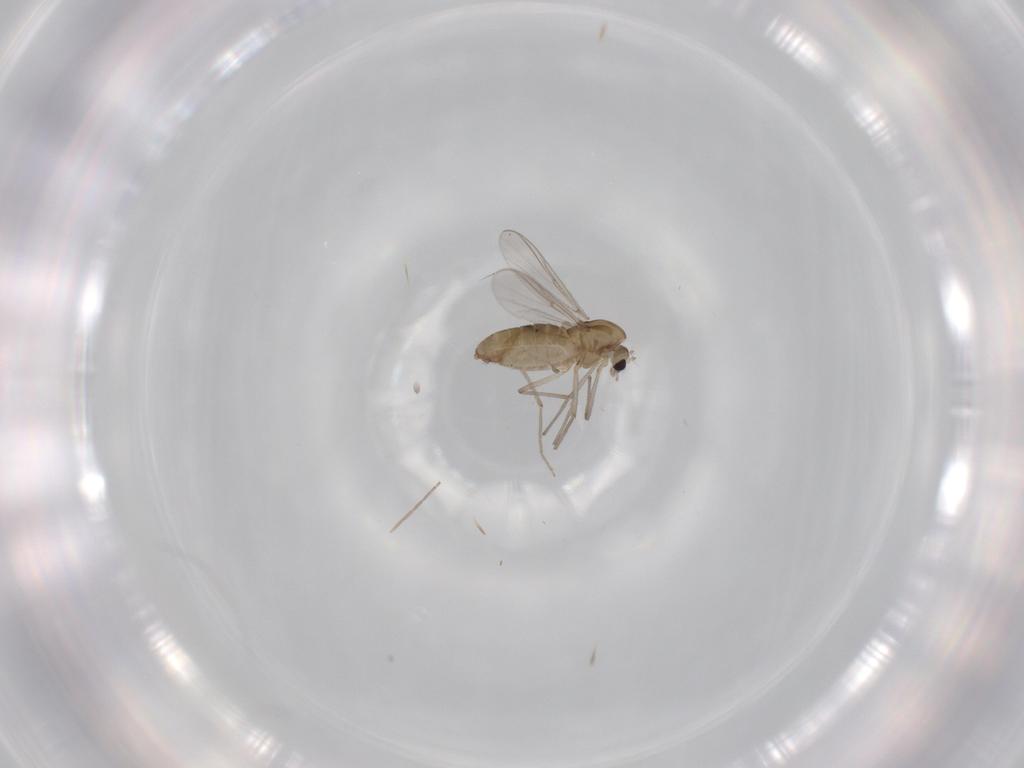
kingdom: Animalia
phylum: Arthropoda
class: Insecta
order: Diptera
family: Chironomidae
